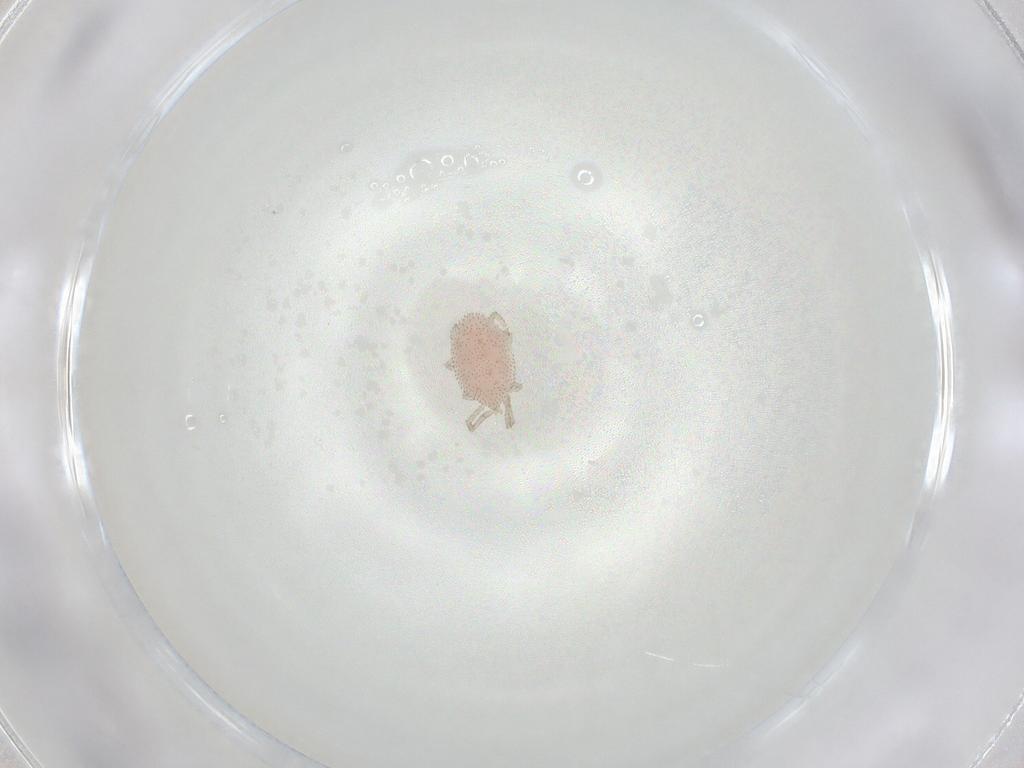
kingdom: Animalia
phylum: Arthropoda
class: Arachnida
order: Trombidiformes
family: Smarididae
